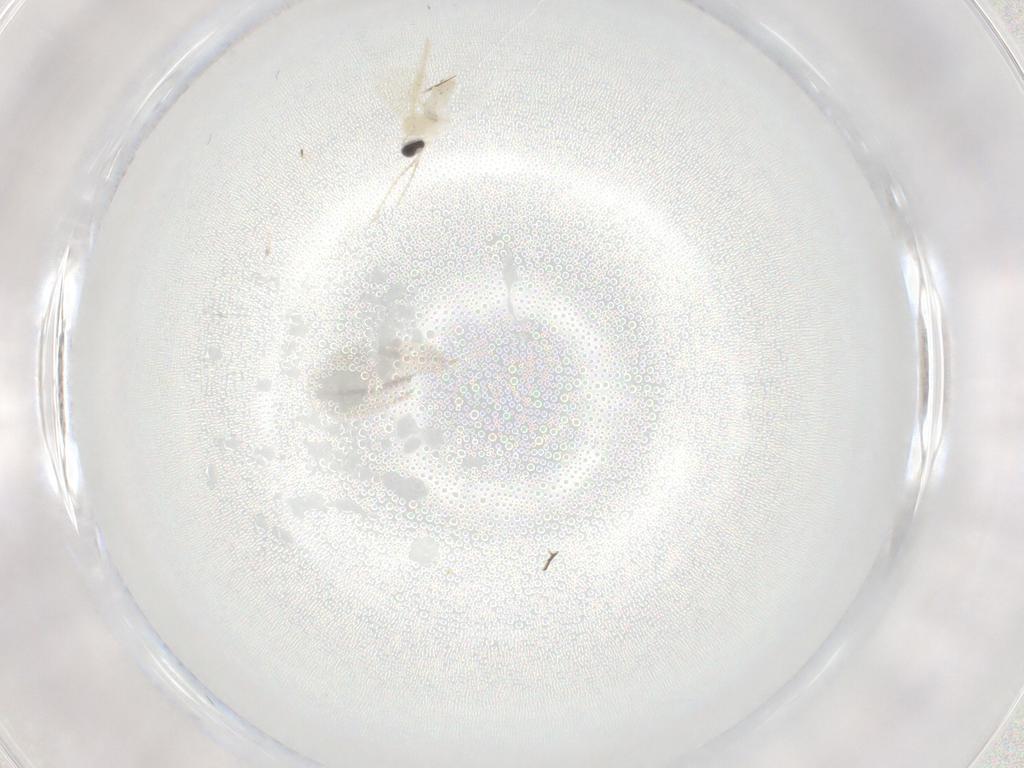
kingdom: Animalia
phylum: Arthropoda
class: Insecta
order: Diptera
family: Cecidomyiidae
